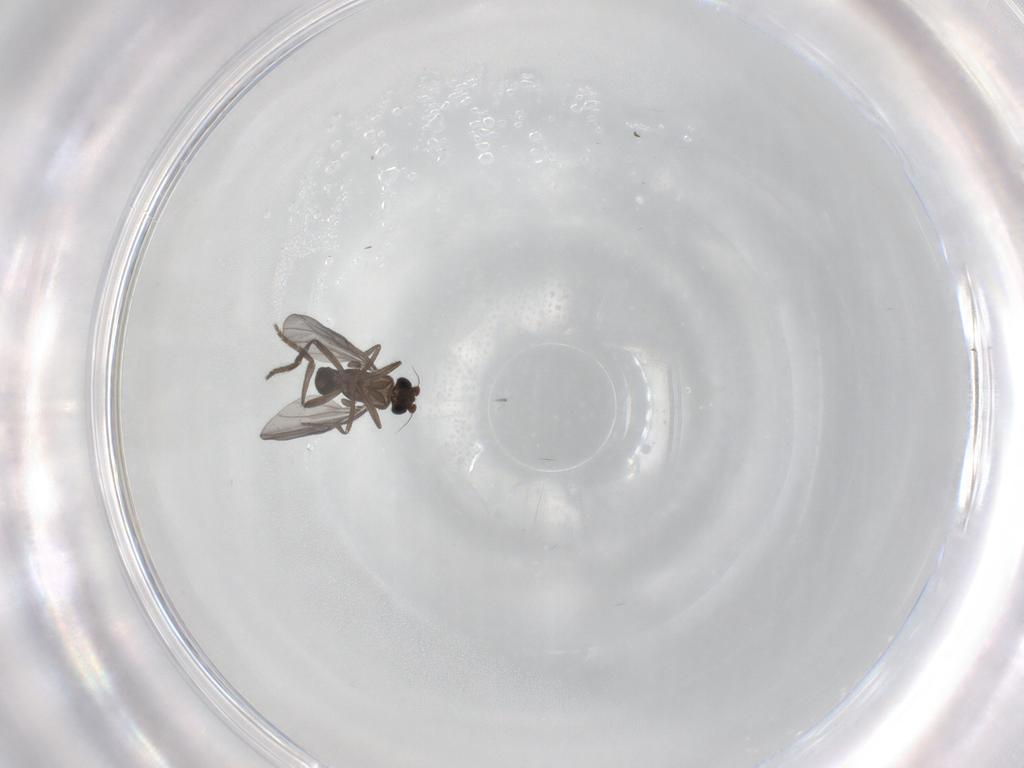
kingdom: Animalia
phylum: Arthropoda
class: Insecta
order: Diptera
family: Phoridae
